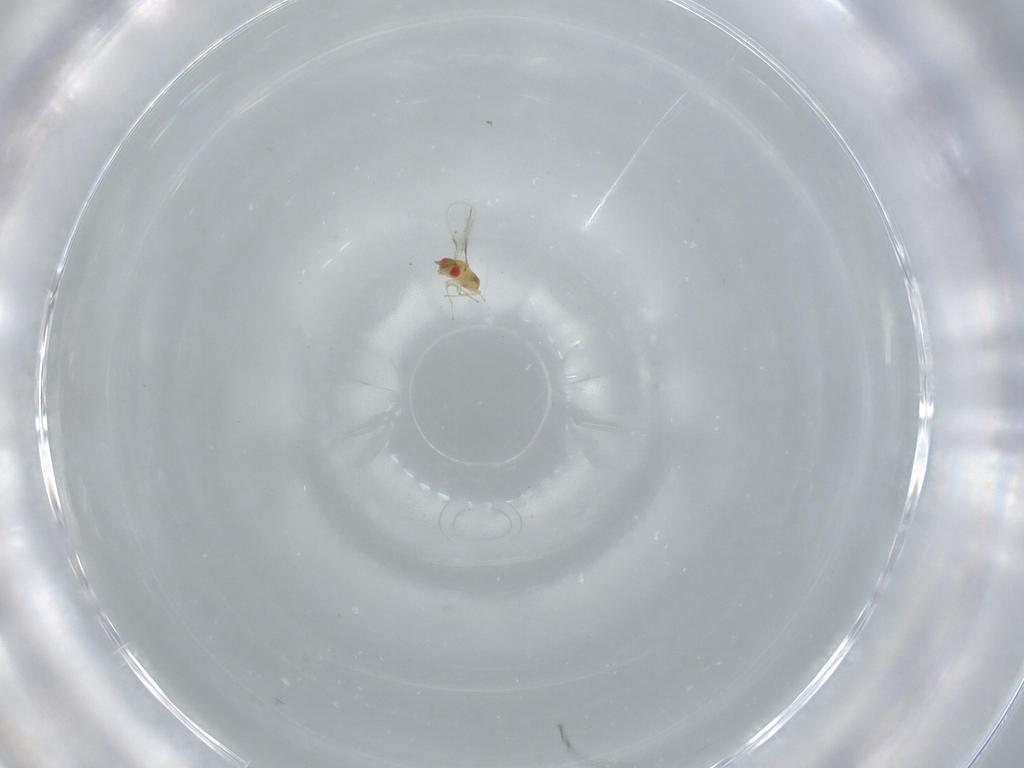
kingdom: Animalia
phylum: Arthropoda
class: Insecta
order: Hymenoptera
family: Trichogrammatidae
